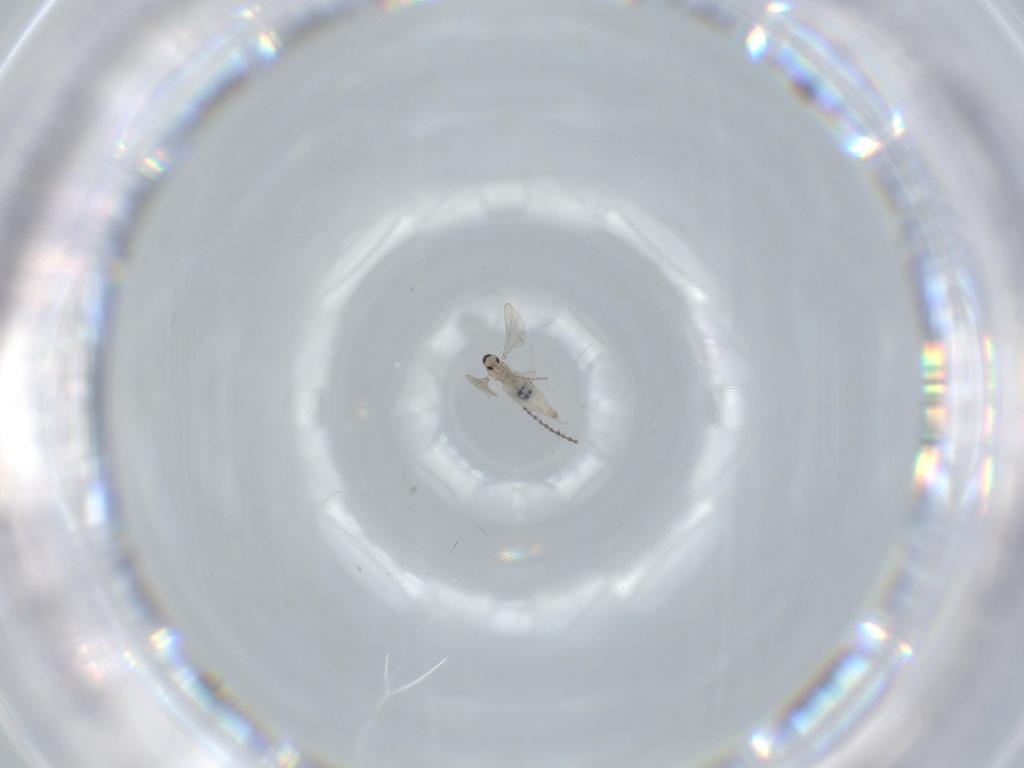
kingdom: Animalia
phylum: Arthropoda
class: Insecta
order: Diptera
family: Cecidomyiidae
